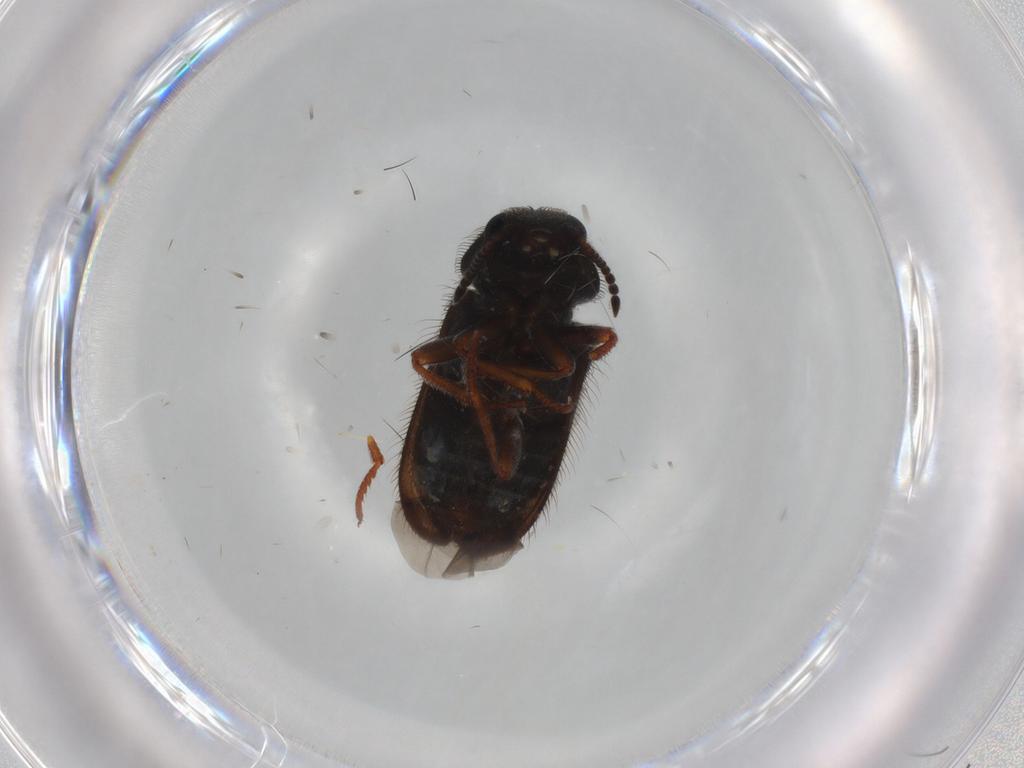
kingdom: Animalia
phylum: Arthropoda
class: Insecta
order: Coleoptera
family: Melyridae
